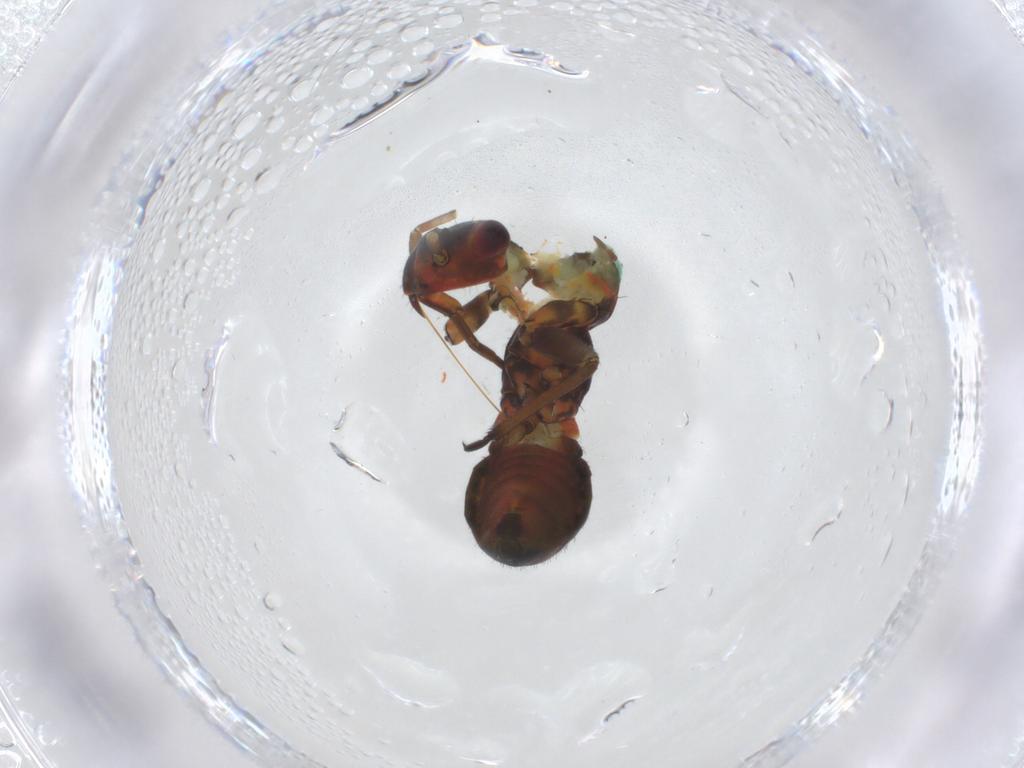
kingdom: Animalia
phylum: Arthropoda
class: Insecta
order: Hemiptera
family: Miridae
